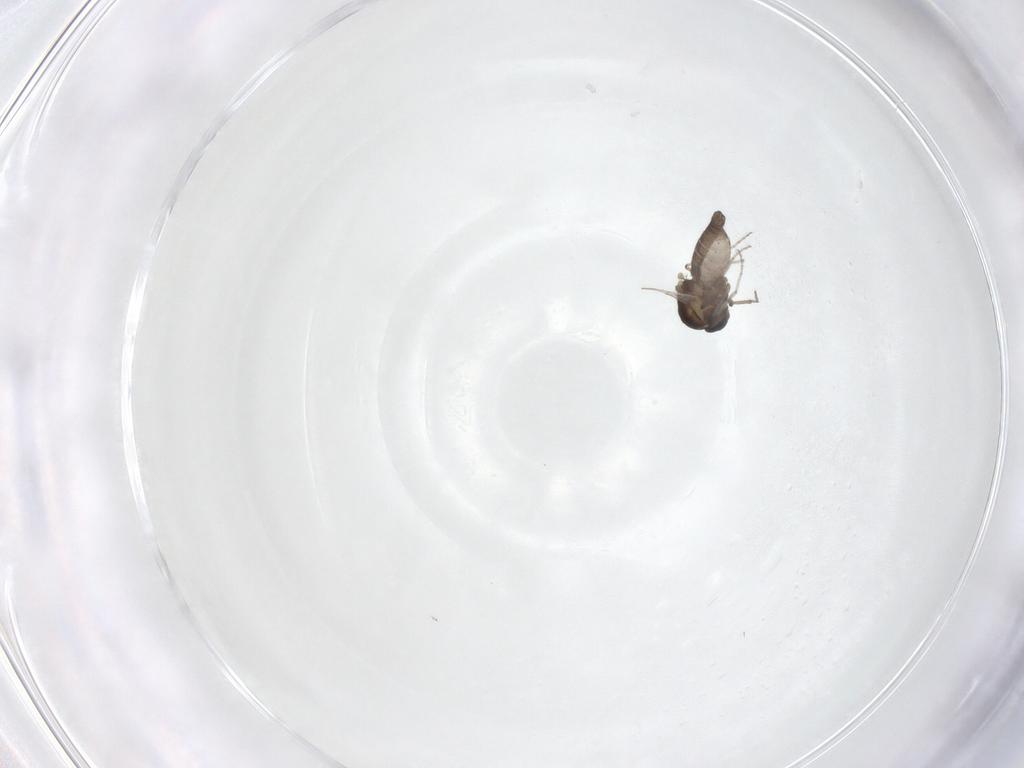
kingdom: Animalia
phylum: Arthropoda
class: Insecta
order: Diptera
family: Ceratopogonidae
